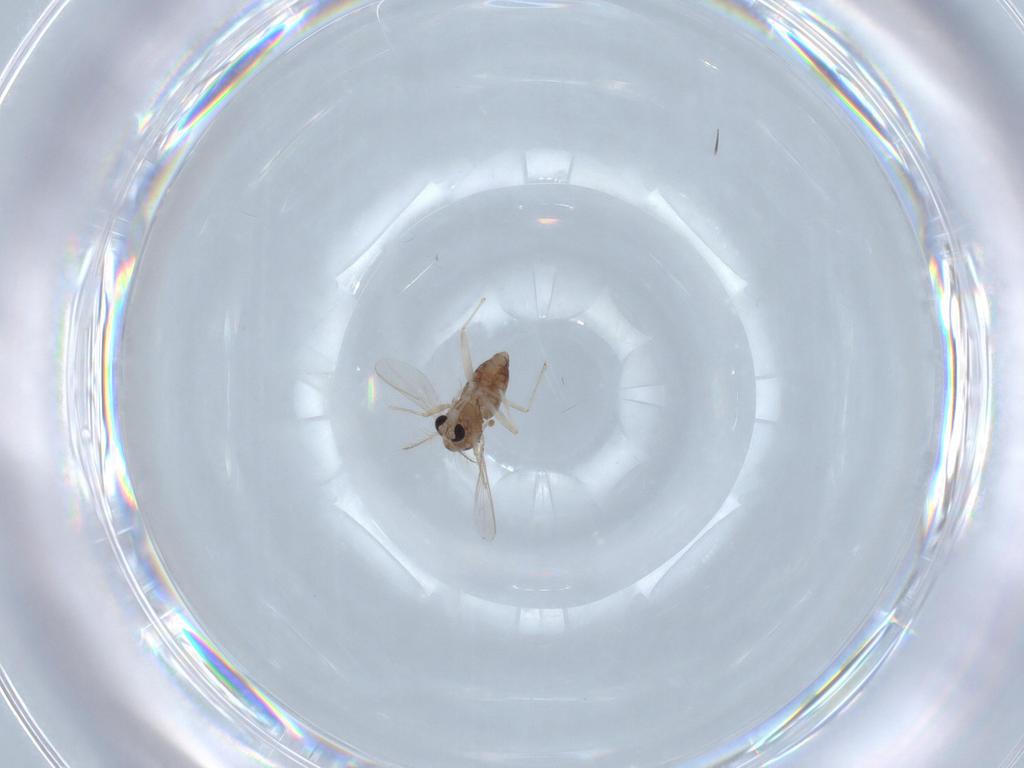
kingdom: Animalia
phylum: Arthropoda
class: Insecta
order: Diptera
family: Chironomidae
